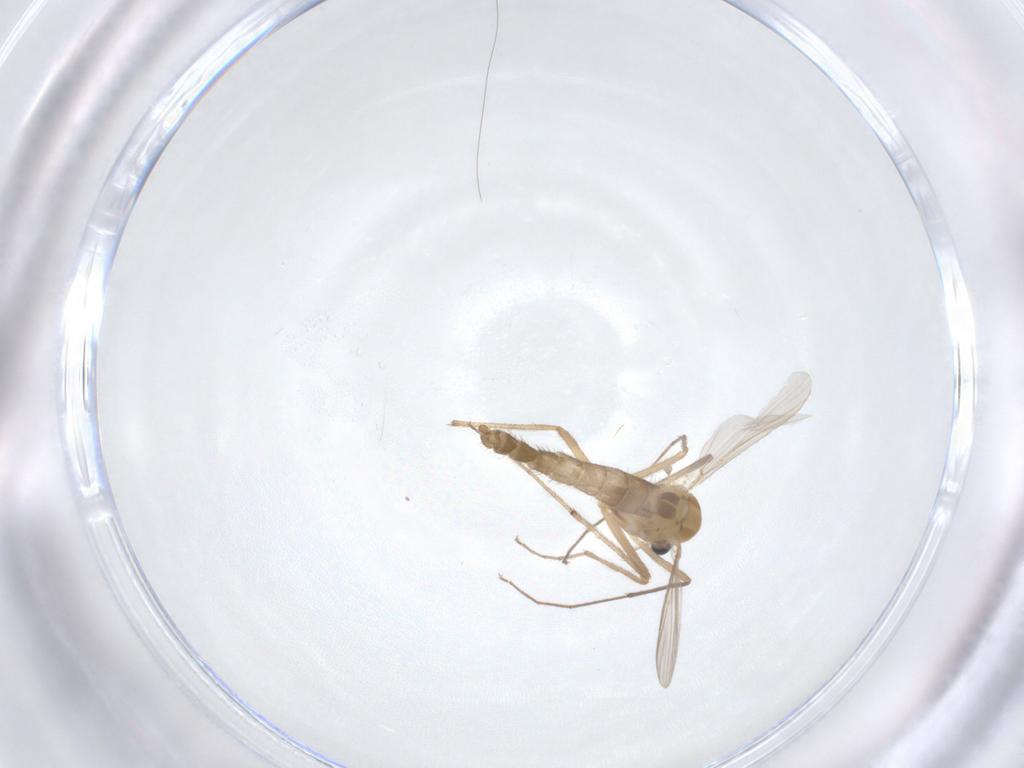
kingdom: Animalia
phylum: Arthropoda
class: Insecta
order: Diptera
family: Chironomidae
